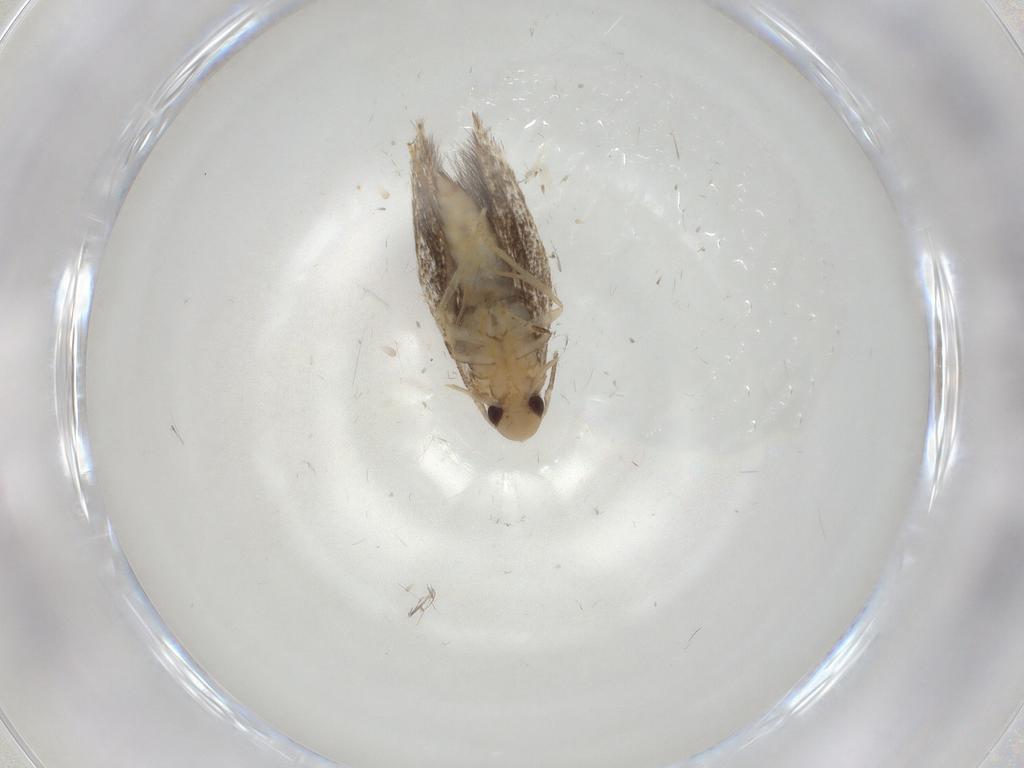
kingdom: Animalia
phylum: Arthropoda
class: Insecta
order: Lepidoptera
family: Gelechiidae
